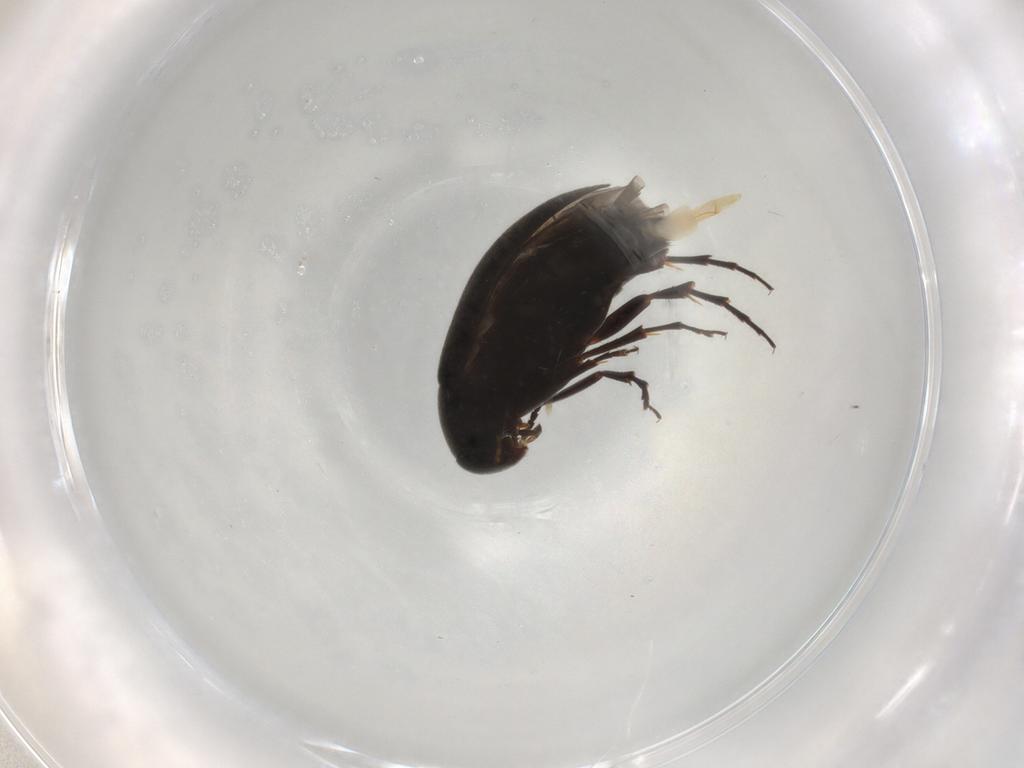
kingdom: Animalia
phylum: Arthropoda
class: Insecta
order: Coleoptera
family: Scraptiidae
